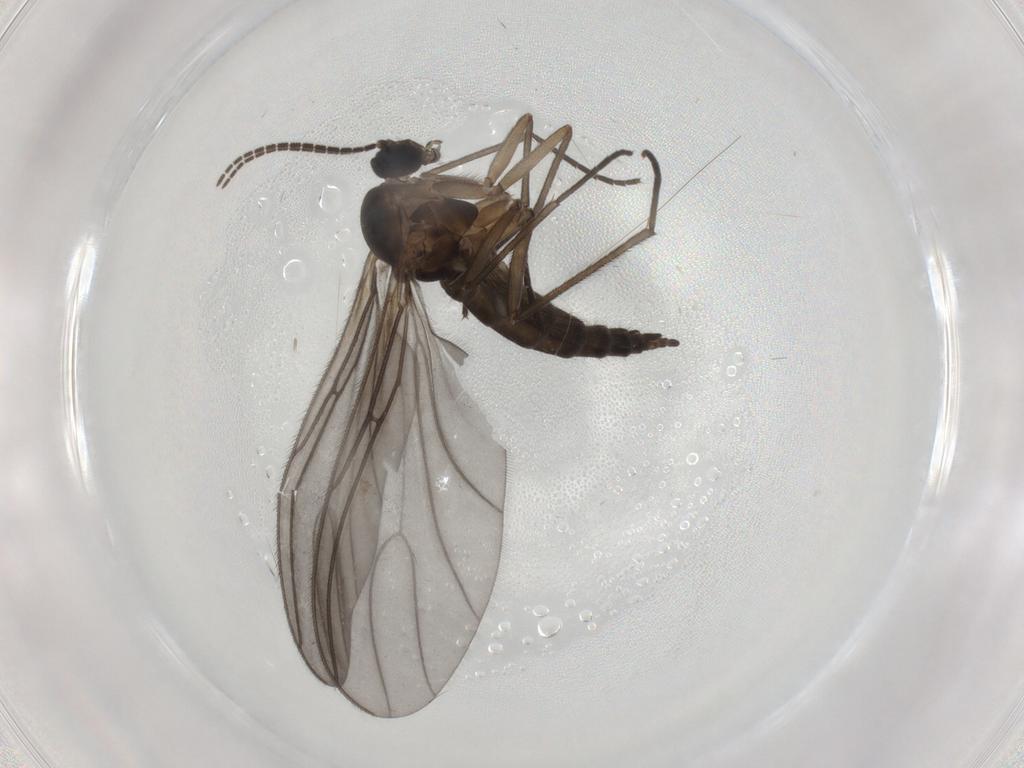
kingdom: Animalia
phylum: Arthropoda
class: Insecta
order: Diptera
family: Sciaridae
